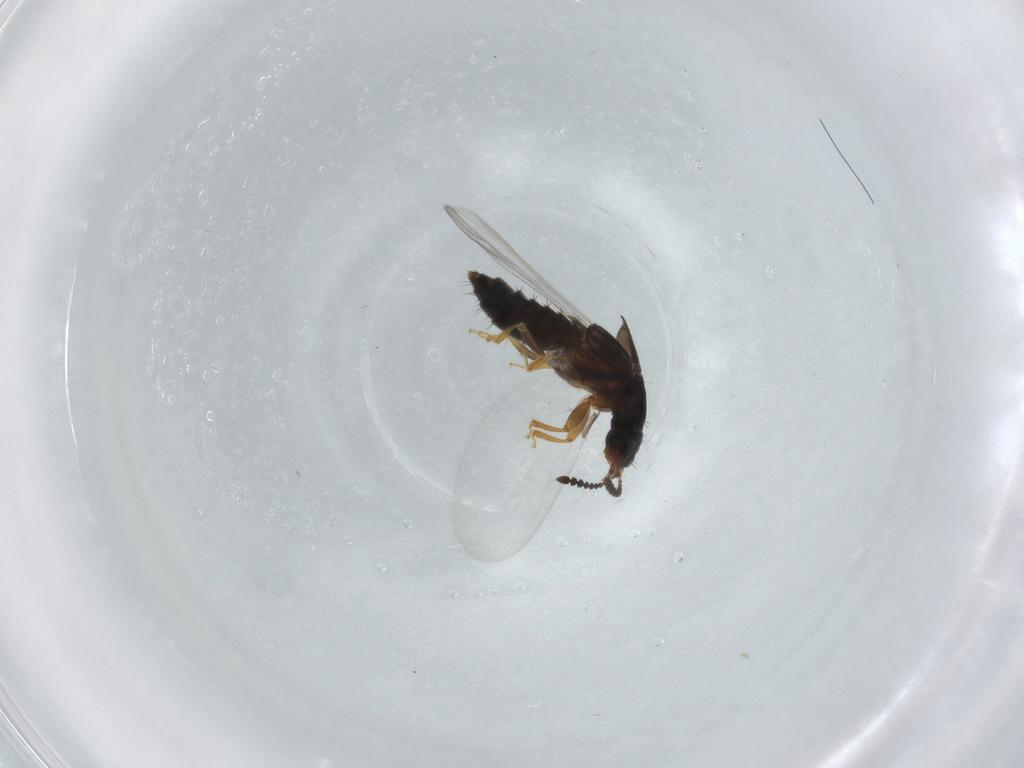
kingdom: Animalia
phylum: Arthropoda
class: Insecta
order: Coleoptera
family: Staphylinidae
